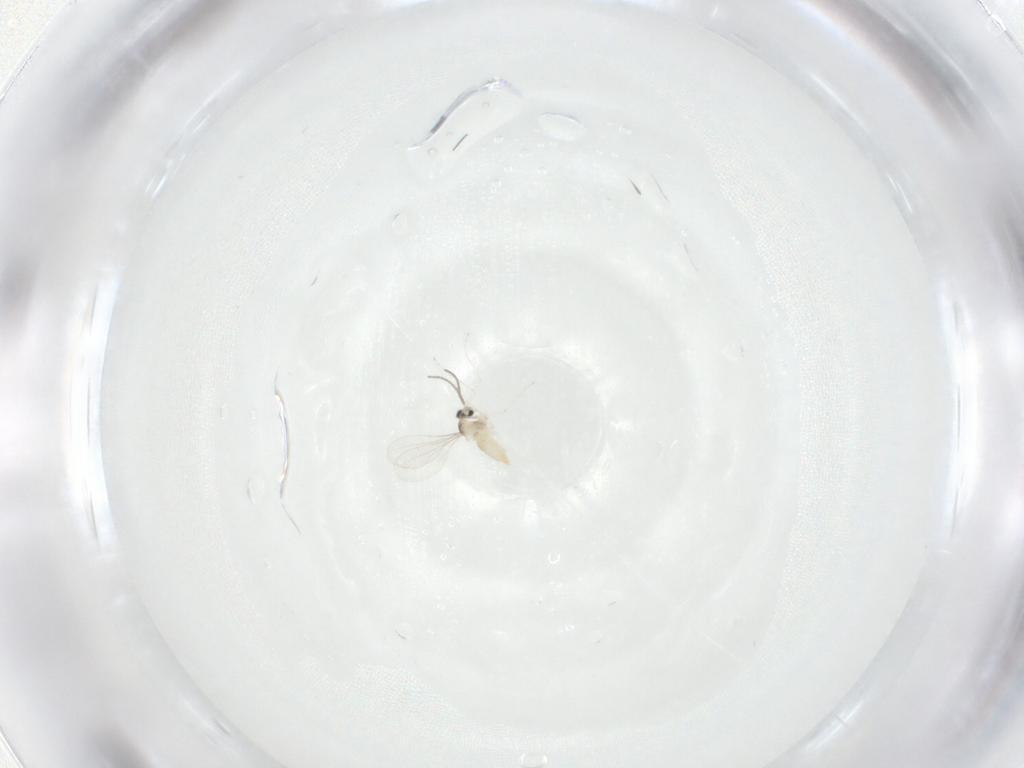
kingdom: Animalia
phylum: Arthropoda
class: Insecta
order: Diptera
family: Cecidomyiidae
